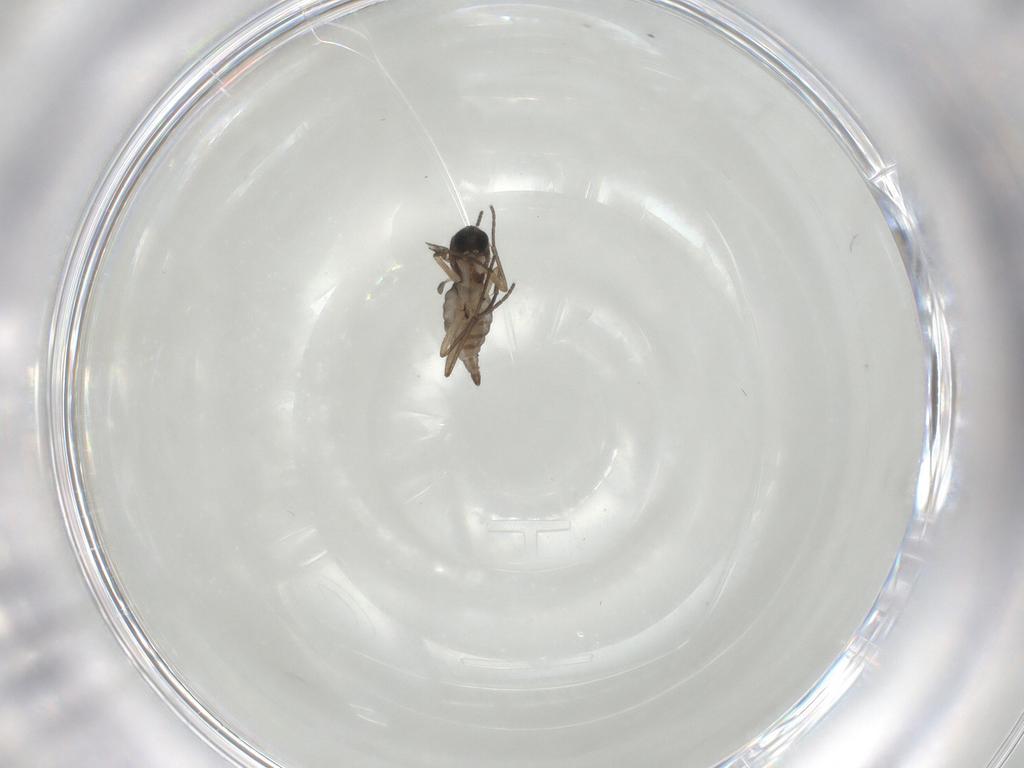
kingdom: Animalia
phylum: Arthropoda
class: Insecta
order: Diptera
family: Sciaridae
